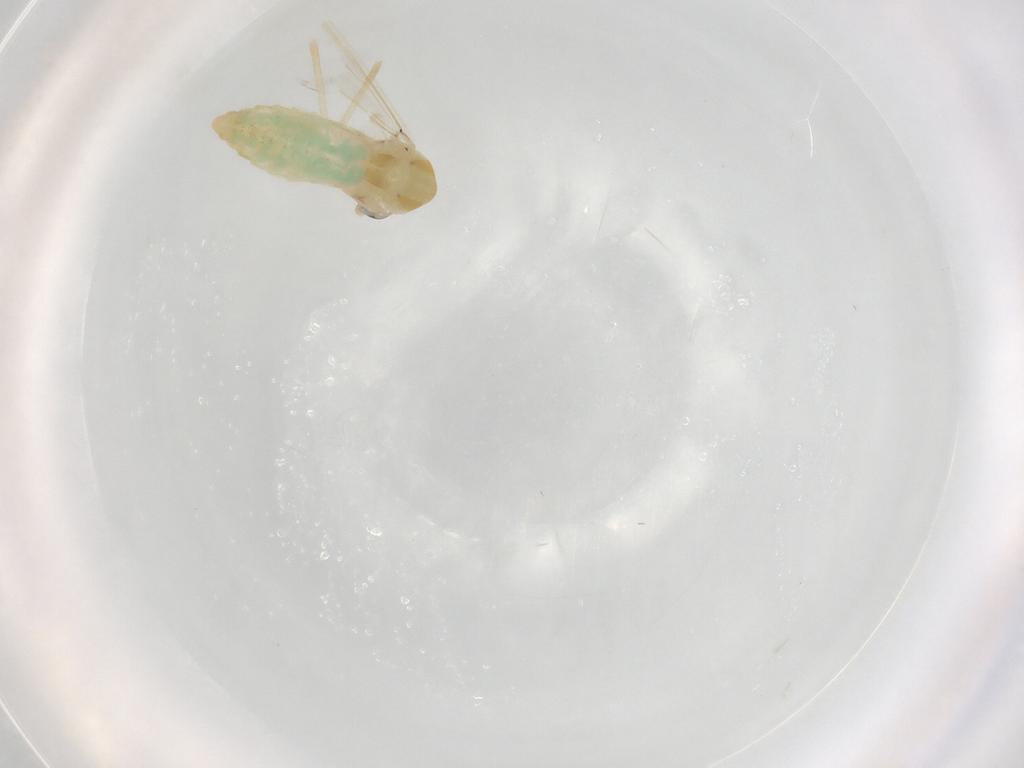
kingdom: Animalia
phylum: Arthropoda
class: Insecta
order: Diptera
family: Chironomidae
